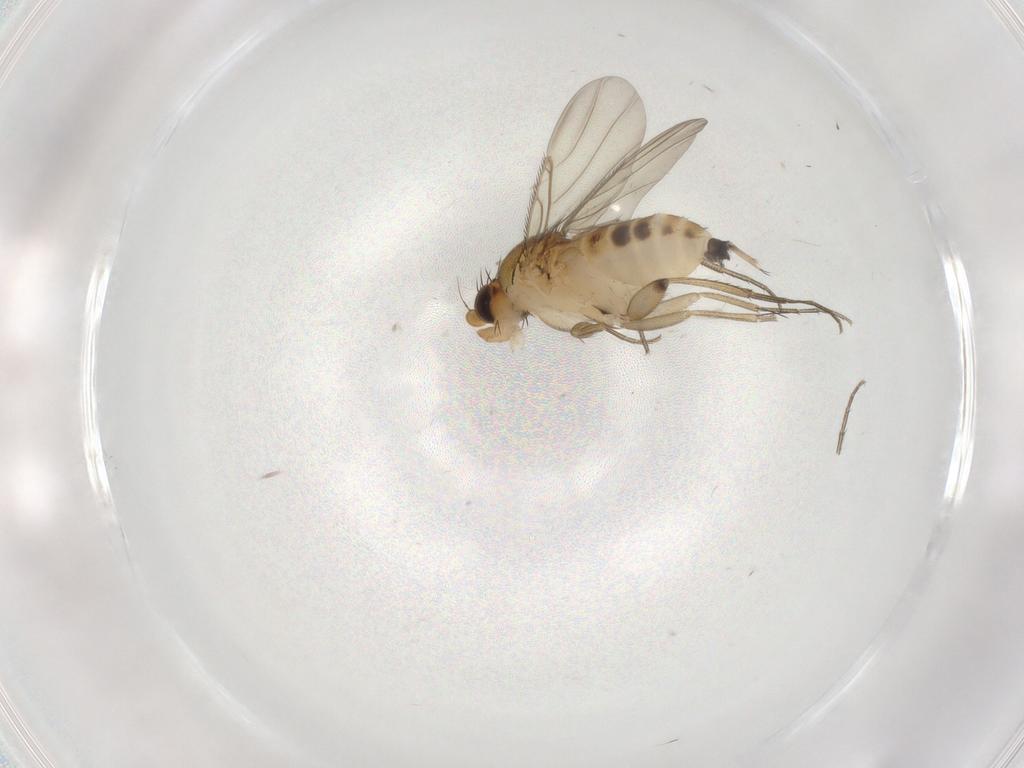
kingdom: Animalia
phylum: Arthropoda
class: Insecta
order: Diptera
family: Phoridae
